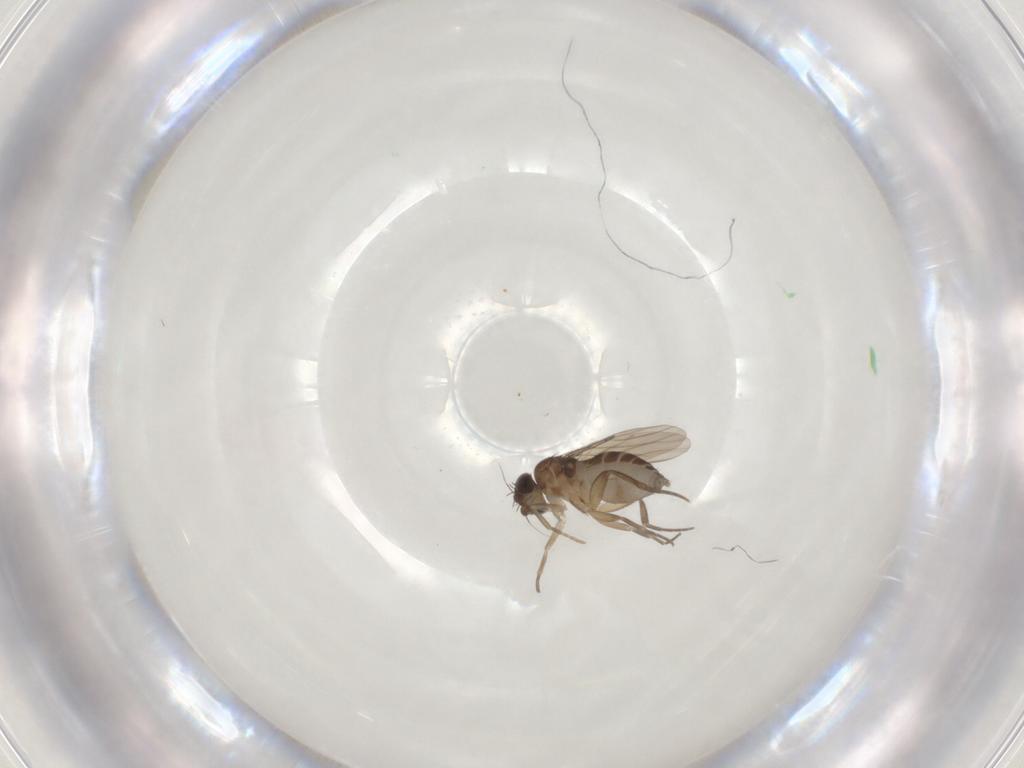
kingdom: Animalia
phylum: Arthropoda
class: Insecta
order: Diptera
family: Phoridae
